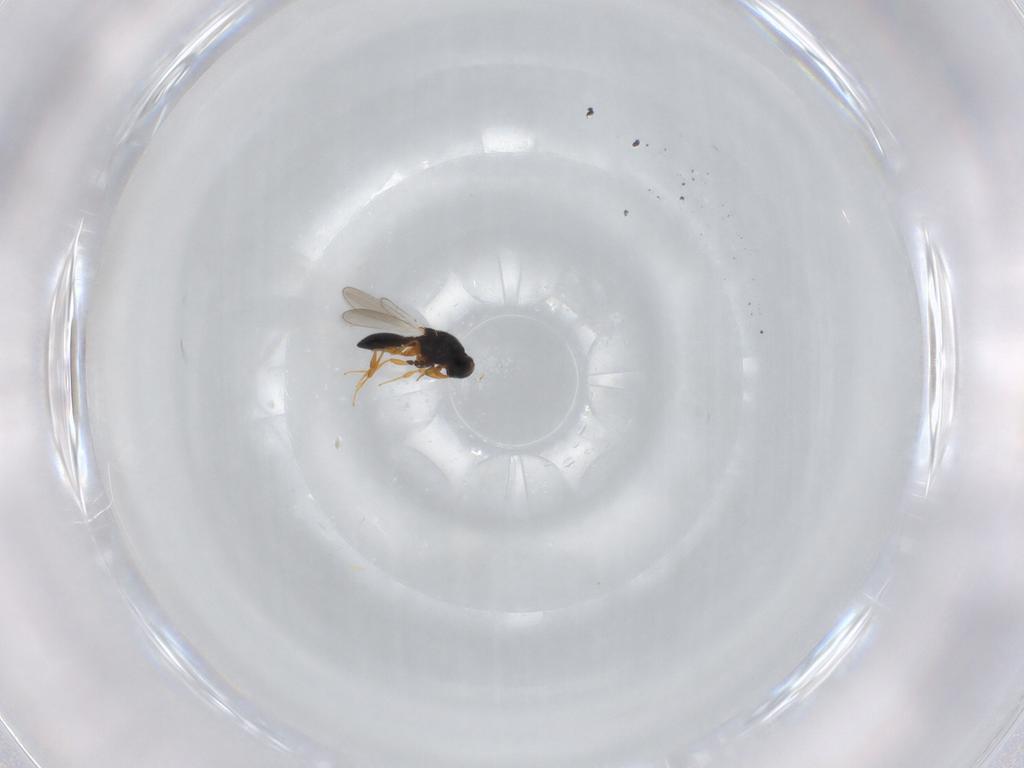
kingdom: Animalia
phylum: Arthropoda
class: Insecta
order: Hymenoptera
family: Platygastridae
